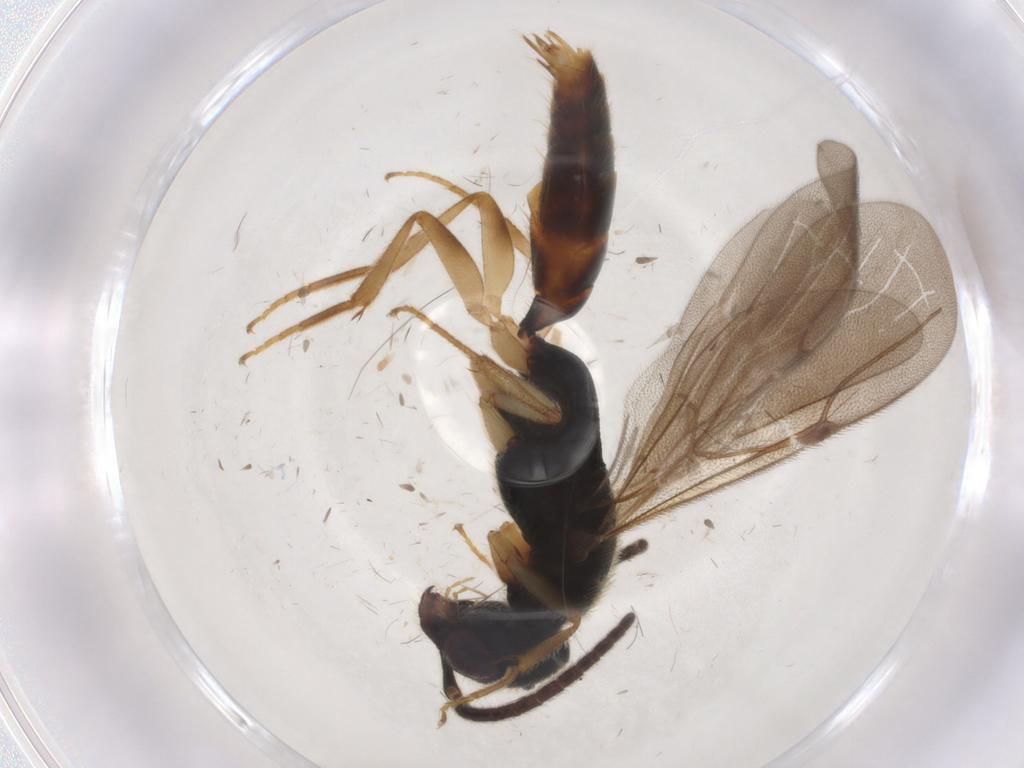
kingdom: Animalia
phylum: Arthropoda
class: Insecta
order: Hymenoptera
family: Bethylidae
